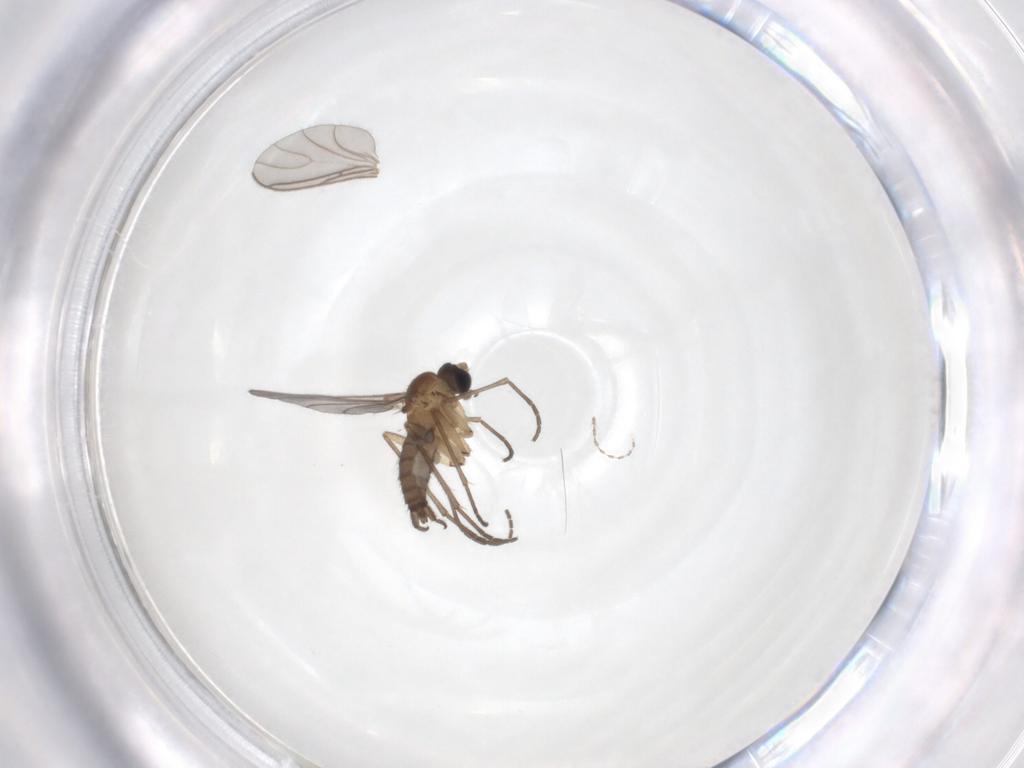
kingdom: Animalia
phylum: Arthropoda
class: Insecta
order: Diptera
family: Sciaridae
